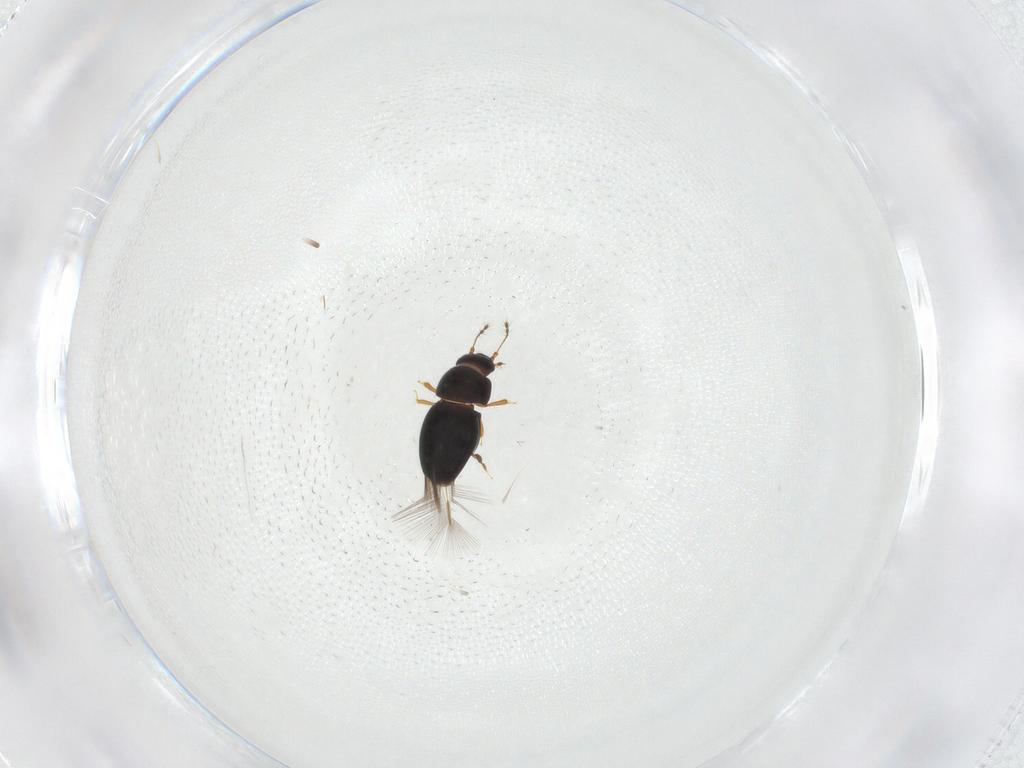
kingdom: Animalia
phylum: Arthropoda
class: Insecta
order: Coleoptera
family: Ptiliidae
